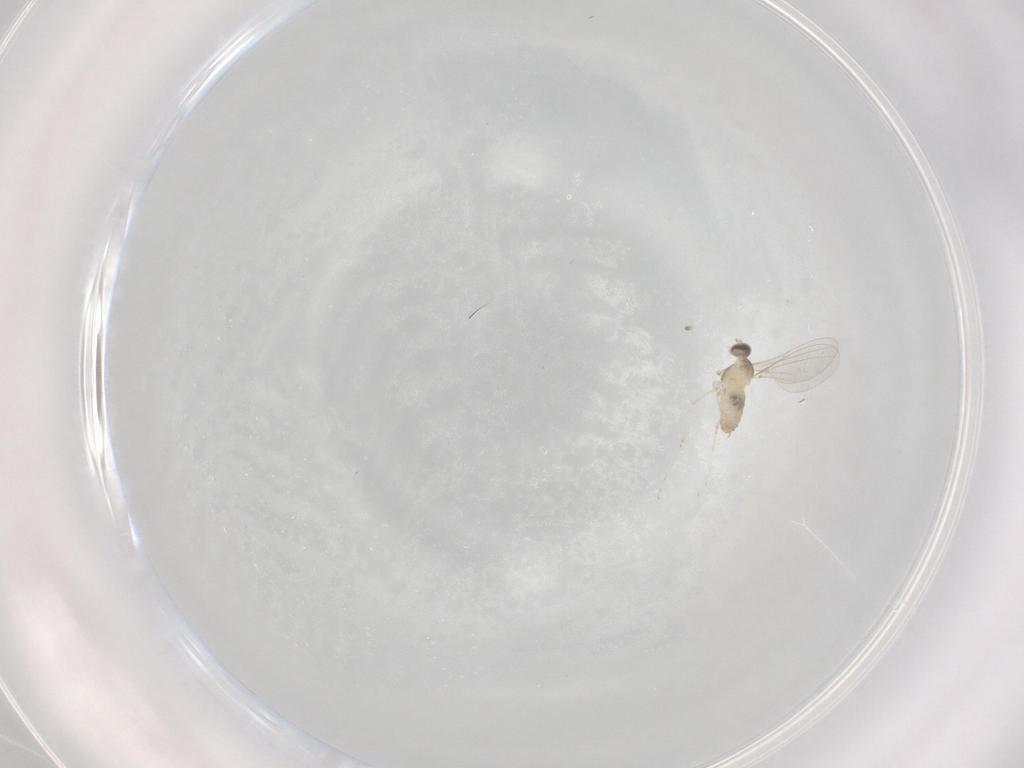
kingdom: Animalia
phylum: Arthropoda
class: Insecta
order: Diptera
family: Cecidomyiidae
